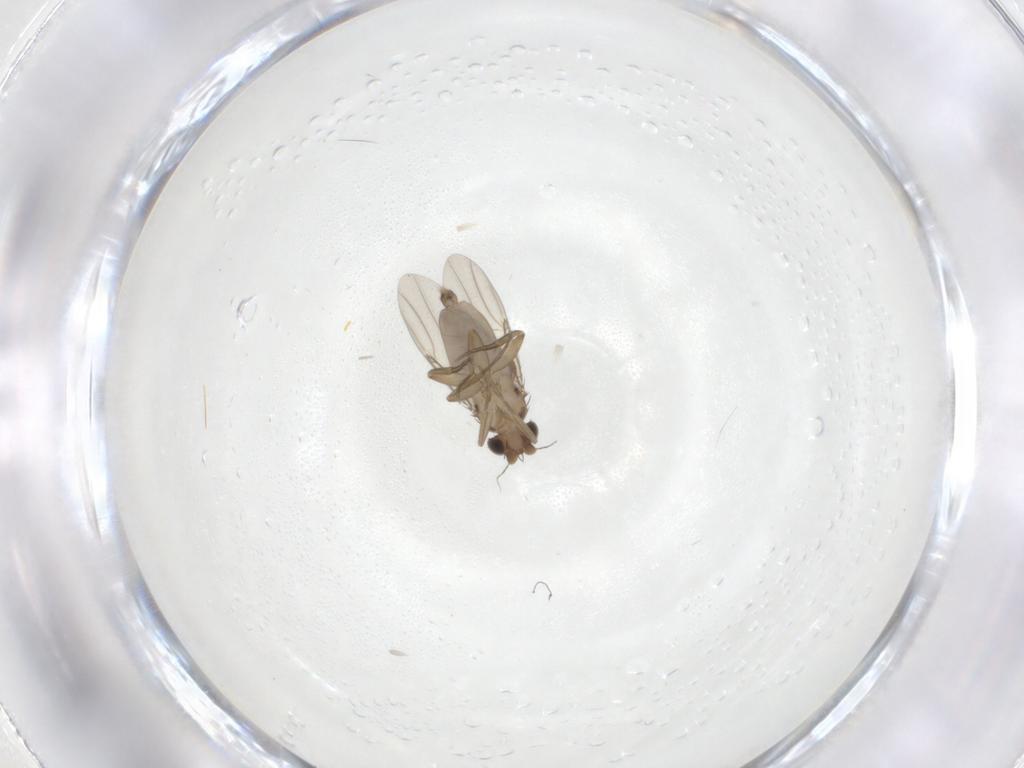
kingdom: Animalia
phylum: Arthropoda
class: Insecta
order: Diptera
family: Phoridae
